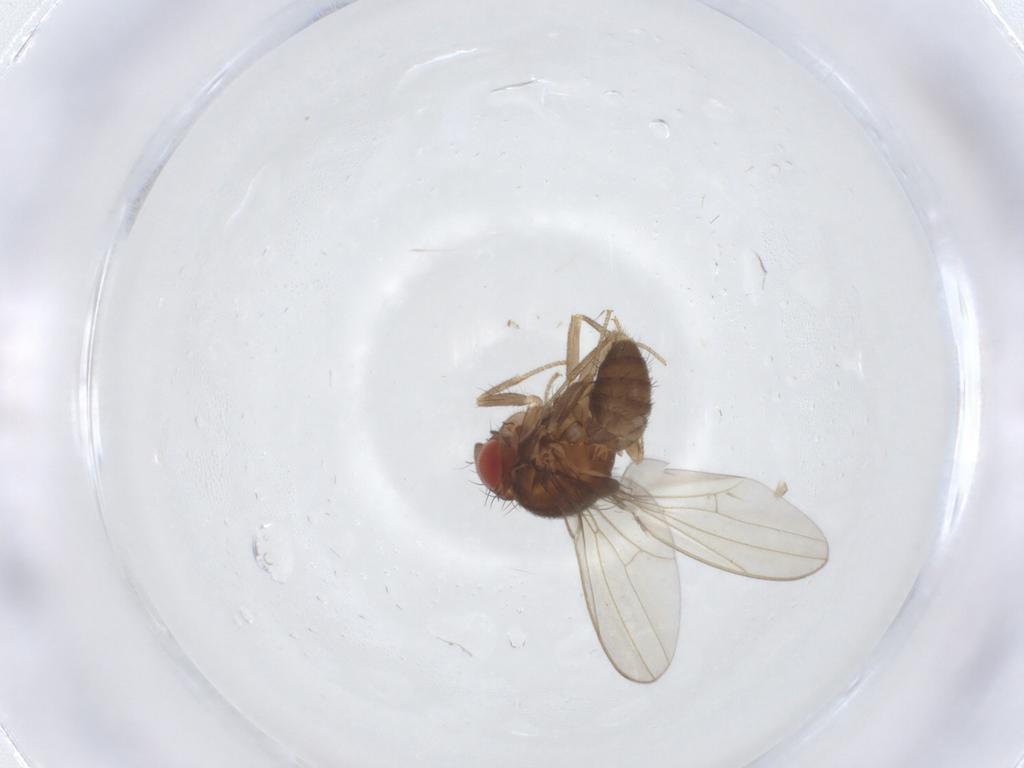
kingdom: Animalia
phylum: Arthropoda
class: Insecta
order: Diptera
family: Drosophilidae
